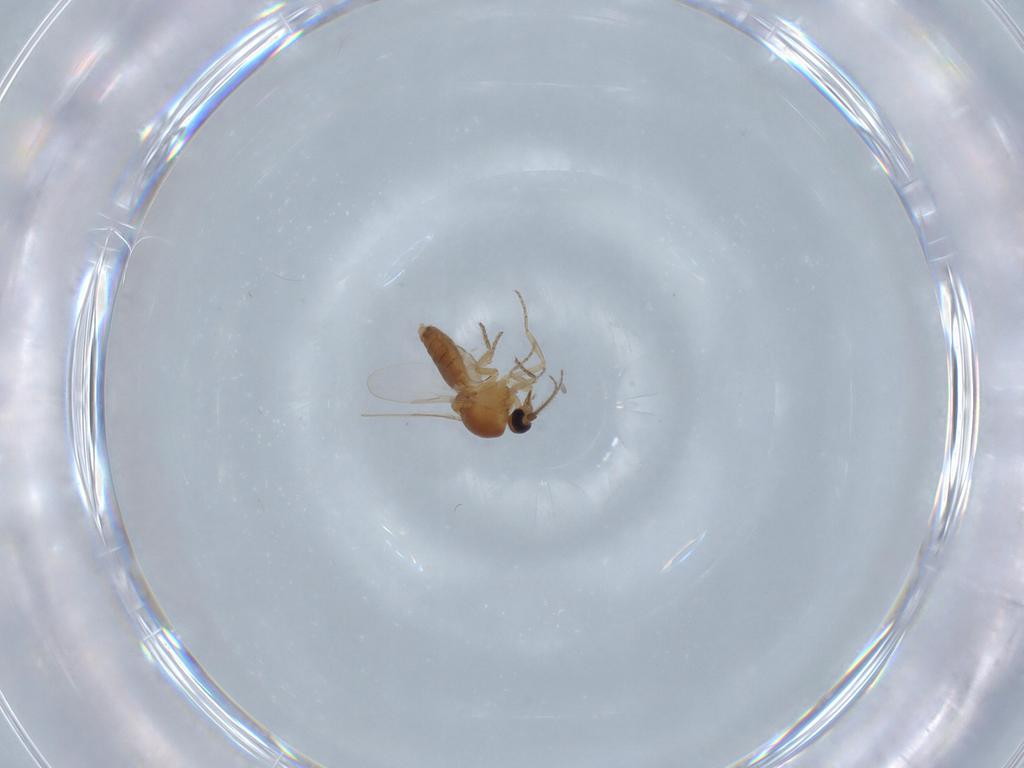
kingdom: Animalia
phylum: Arthropoda
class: Insecta
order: Diptera
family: Ceratopogonidae
